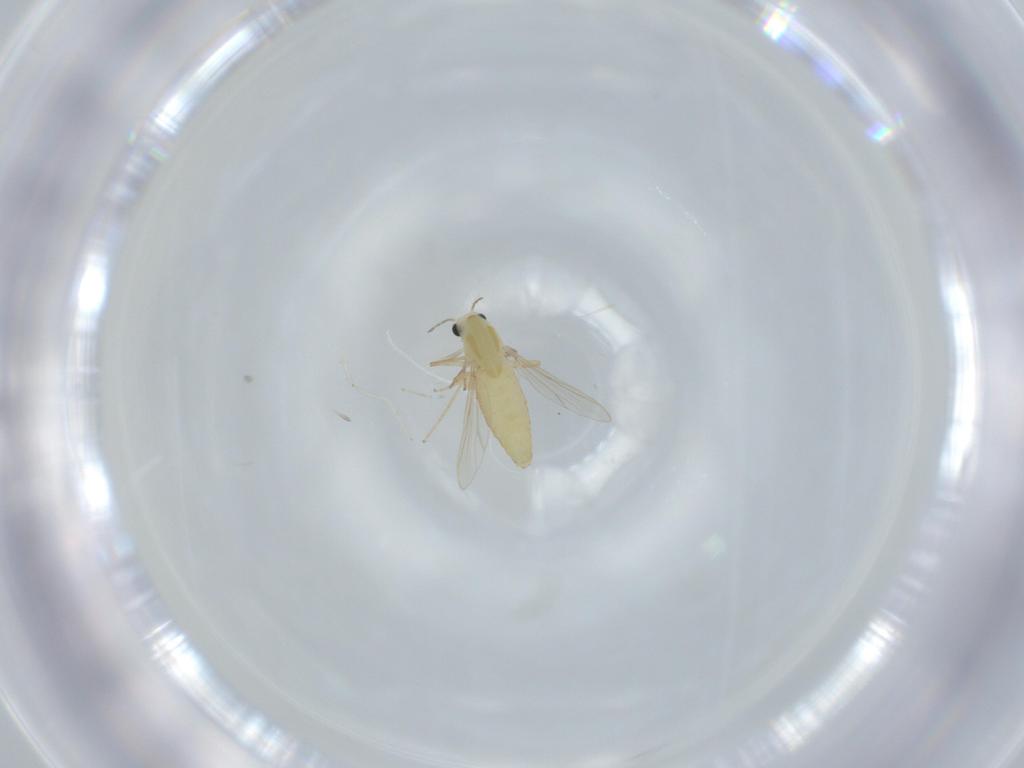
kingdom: Animalia
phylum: Arthropoda
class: Insecta
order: Diptera
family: Chironomidae
